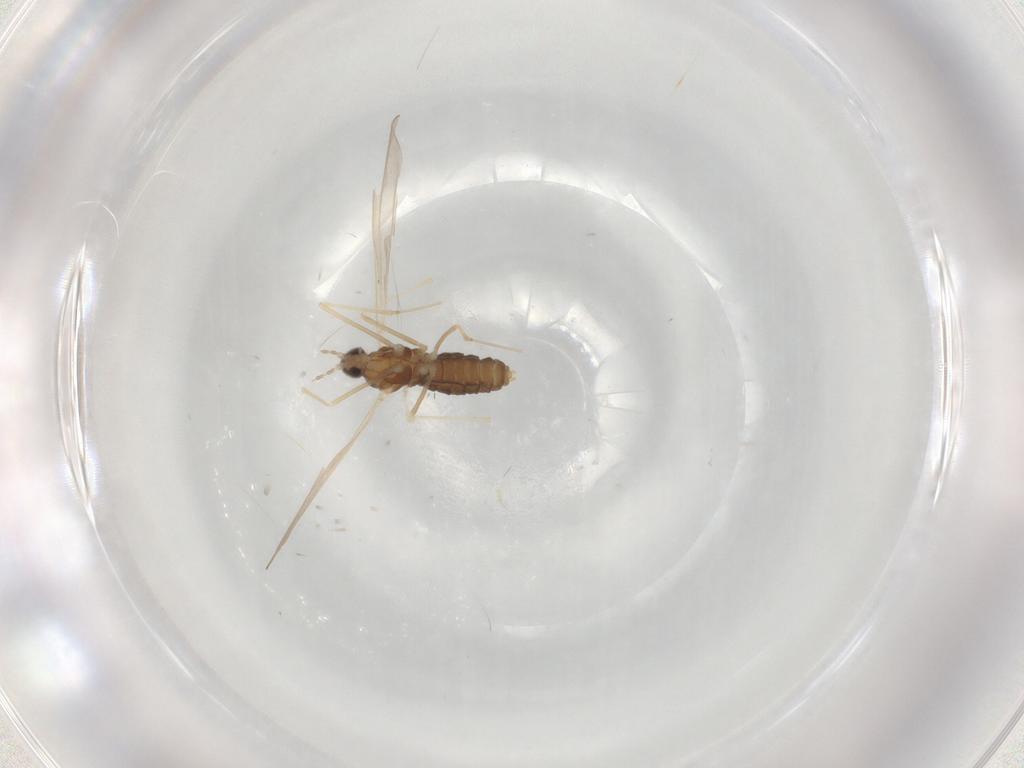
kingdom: Animalia
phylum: Arthropoda
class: Insecta
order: Diptera
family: Cecidomyiidae
